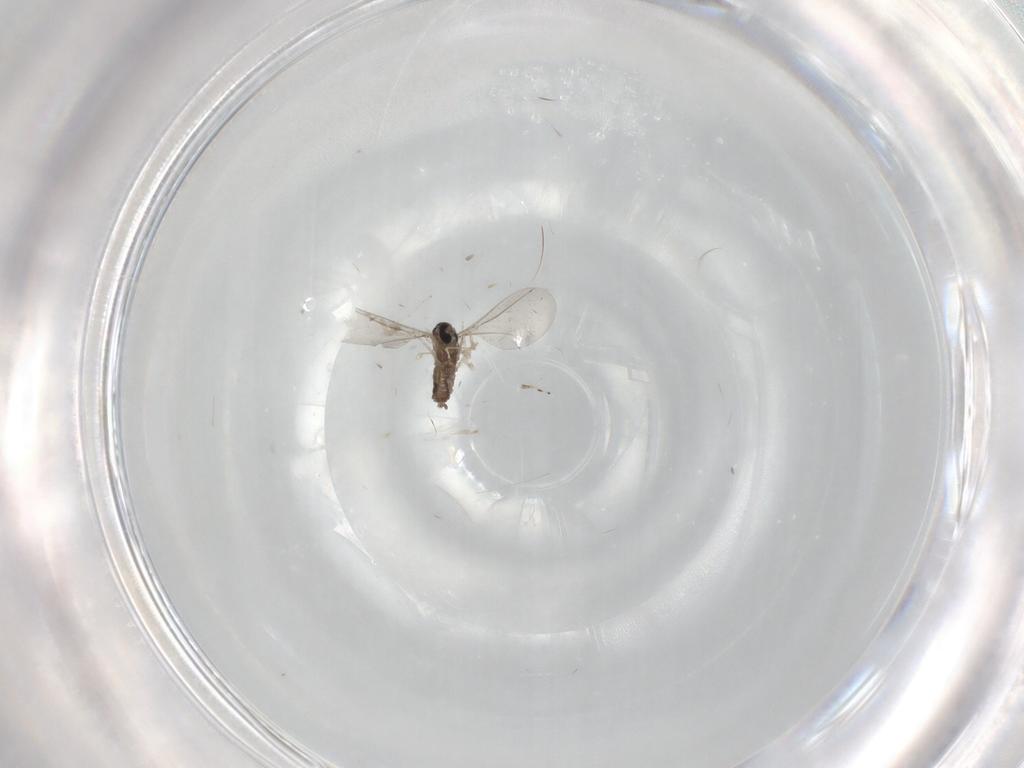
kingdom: Animalia
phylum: Arthropoda
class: Insecta
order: Diptera
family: Cecidomyiidae
